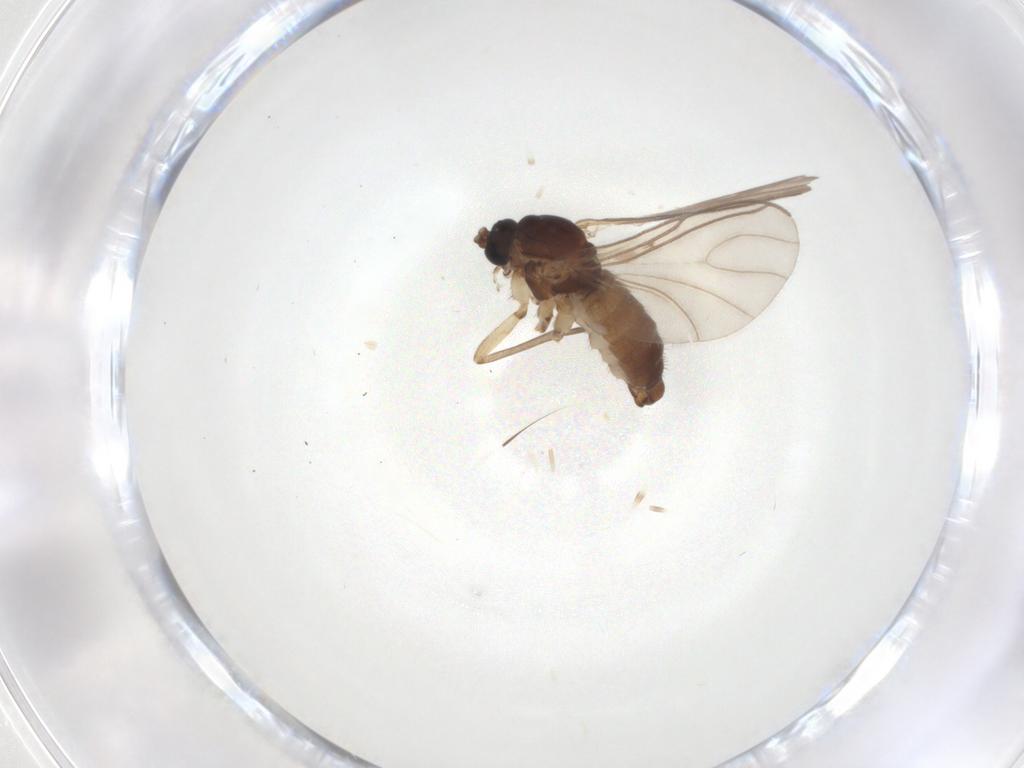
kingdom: Animalia
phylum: Arthropoda
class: Insecta
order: Diptera
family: Sciaridae
